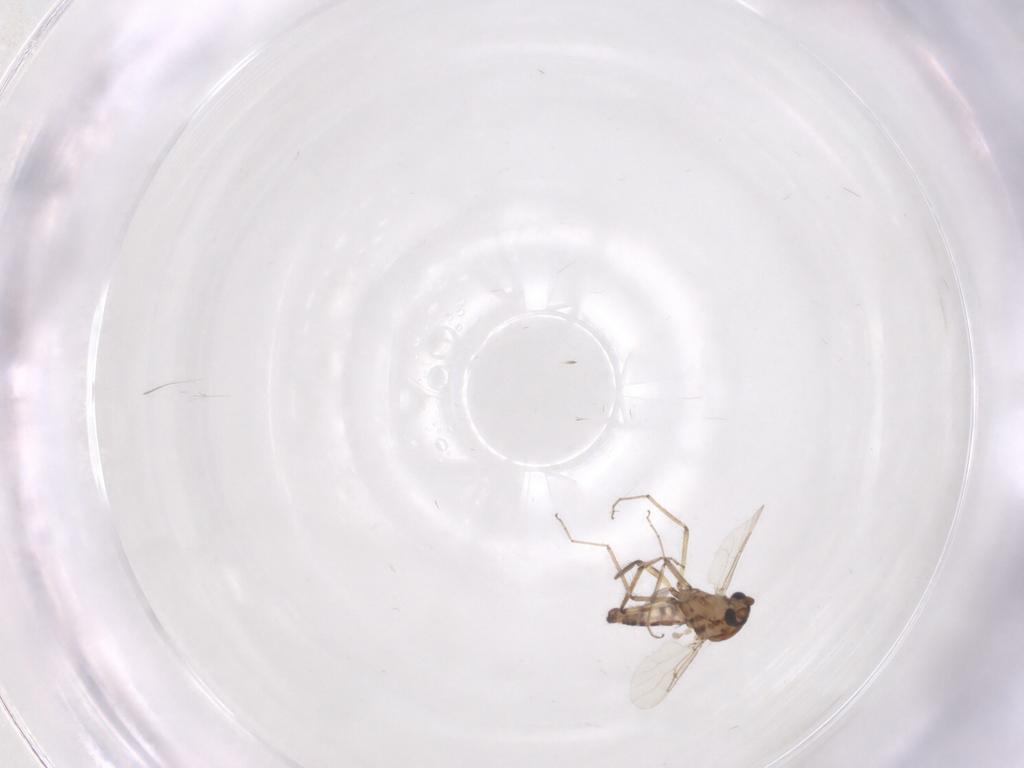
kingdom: Animalia
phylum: Arthropoda
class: Insecta
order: Diptera
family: Ceratopogonidae
